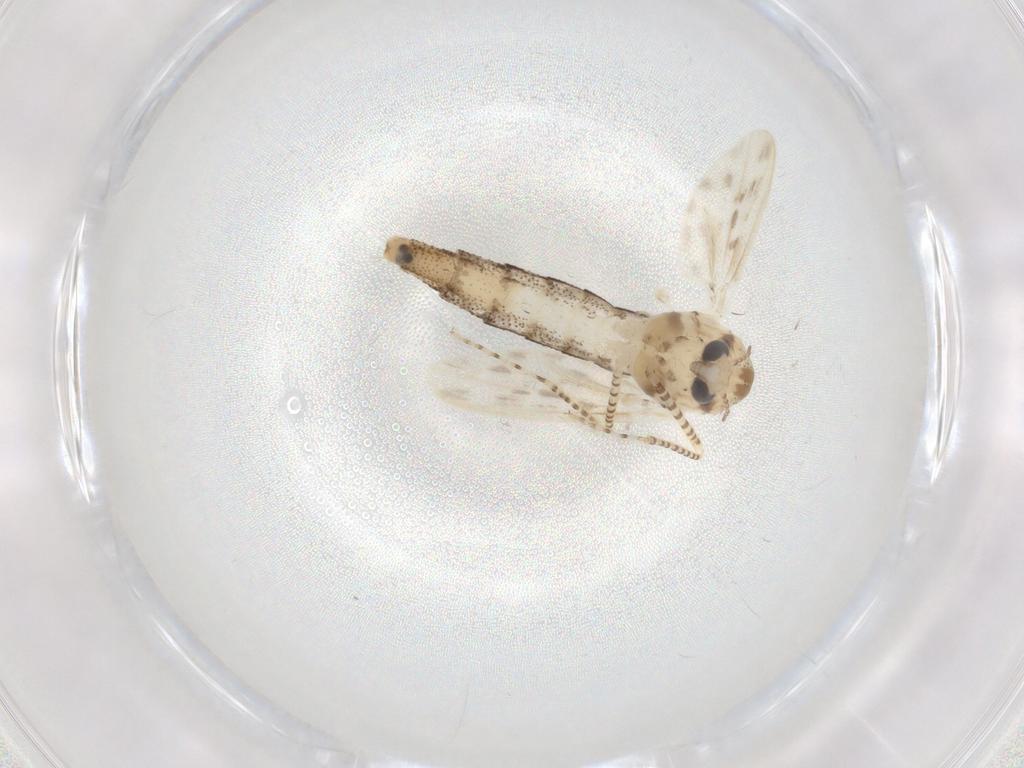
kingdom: Animalia
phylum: Arthropoda
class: Insecta
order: Diptera
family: Chaoboridae
